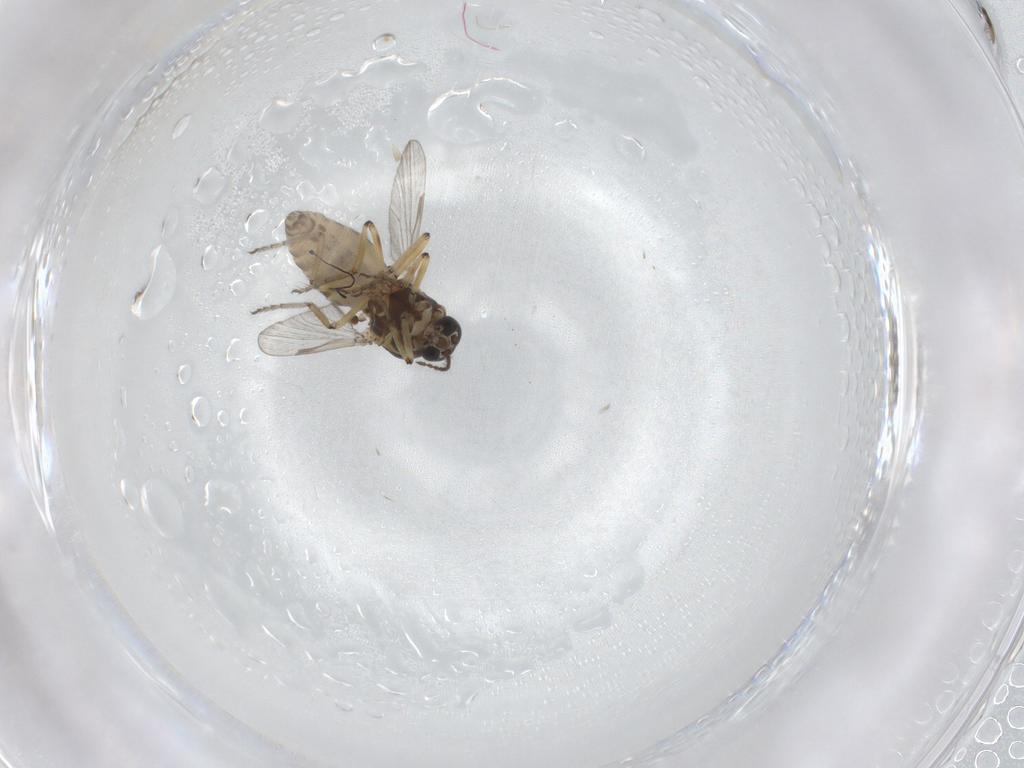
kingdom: Animalia
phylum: Arthropoda
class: Insecta
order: Diptera
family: Ceratopogonidae
